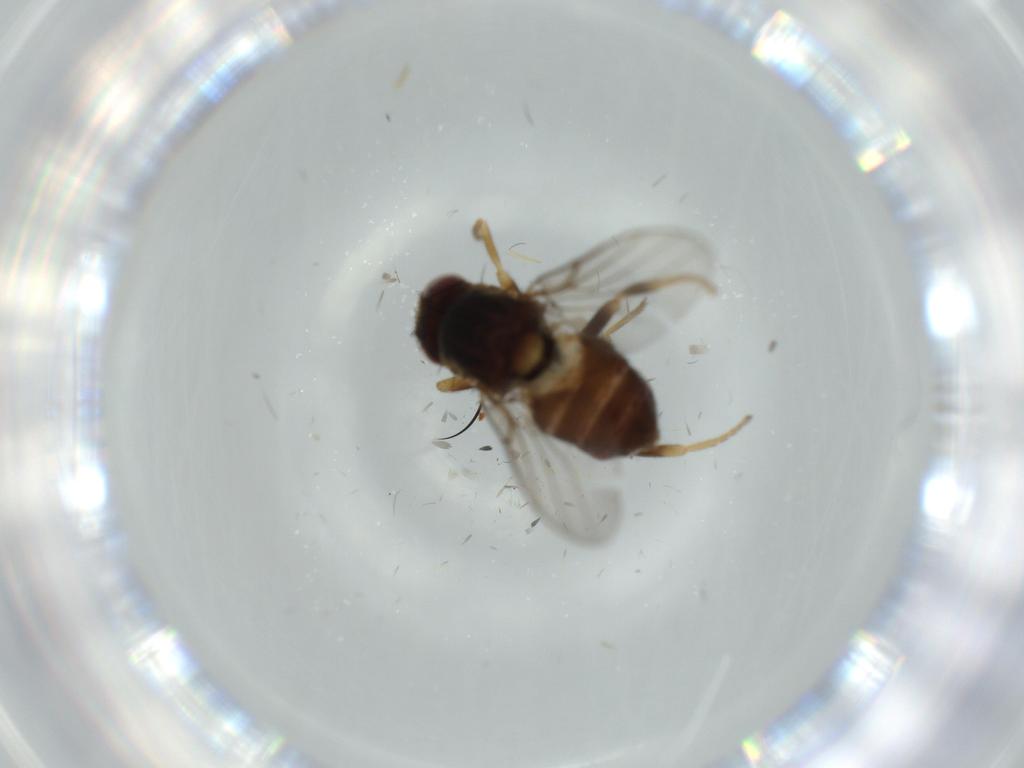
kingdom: Animalia
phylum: Arthropoda
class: Insecta
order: Diptera
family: Chloropidae
